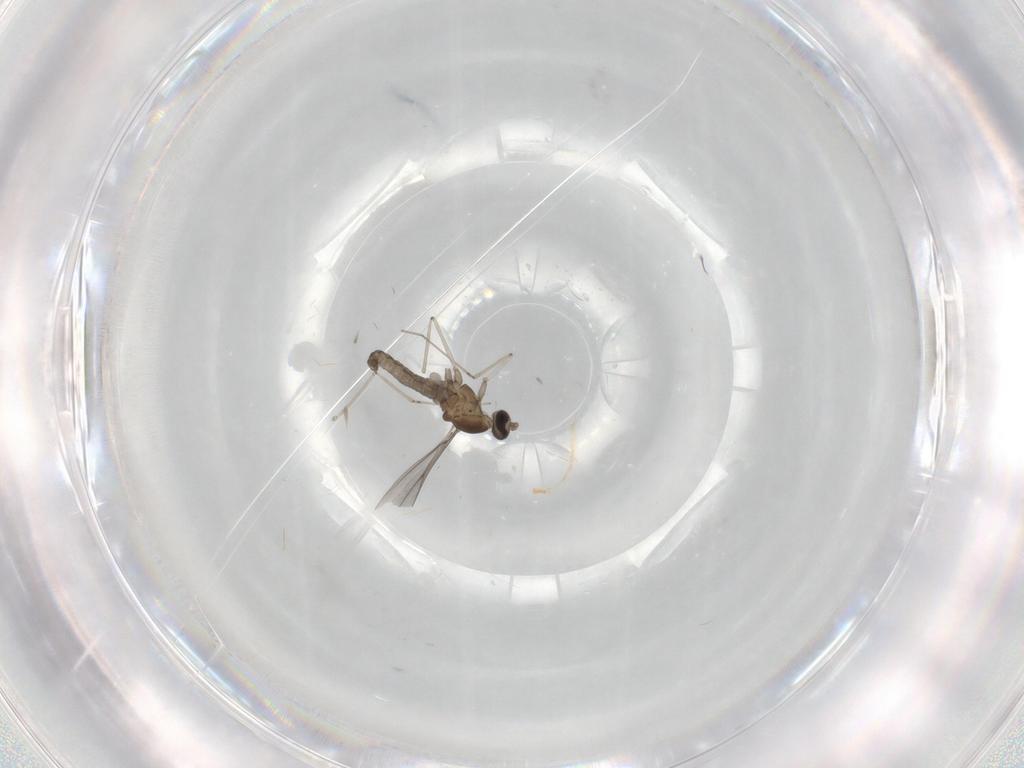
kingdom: Animalia
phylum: Arthropoda
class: Insecta
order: Diptera
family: Cecidomyiidae
